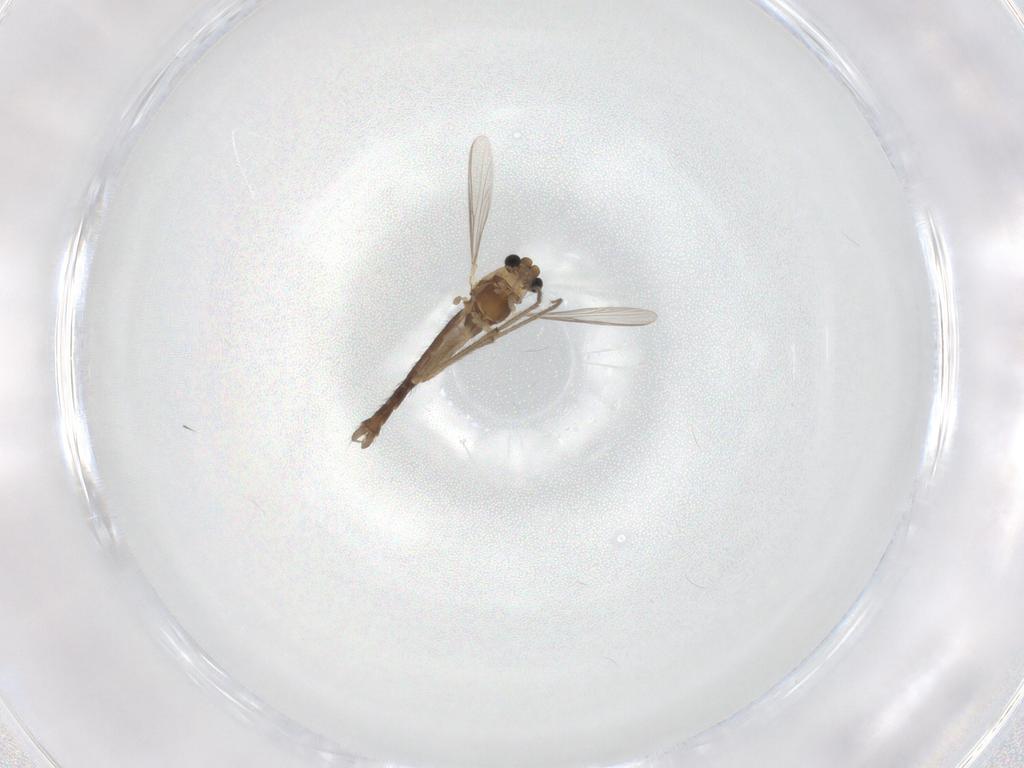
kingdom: Animalia
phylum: Arthropoda
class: Insecta
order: Diptera
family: Chironomidae
